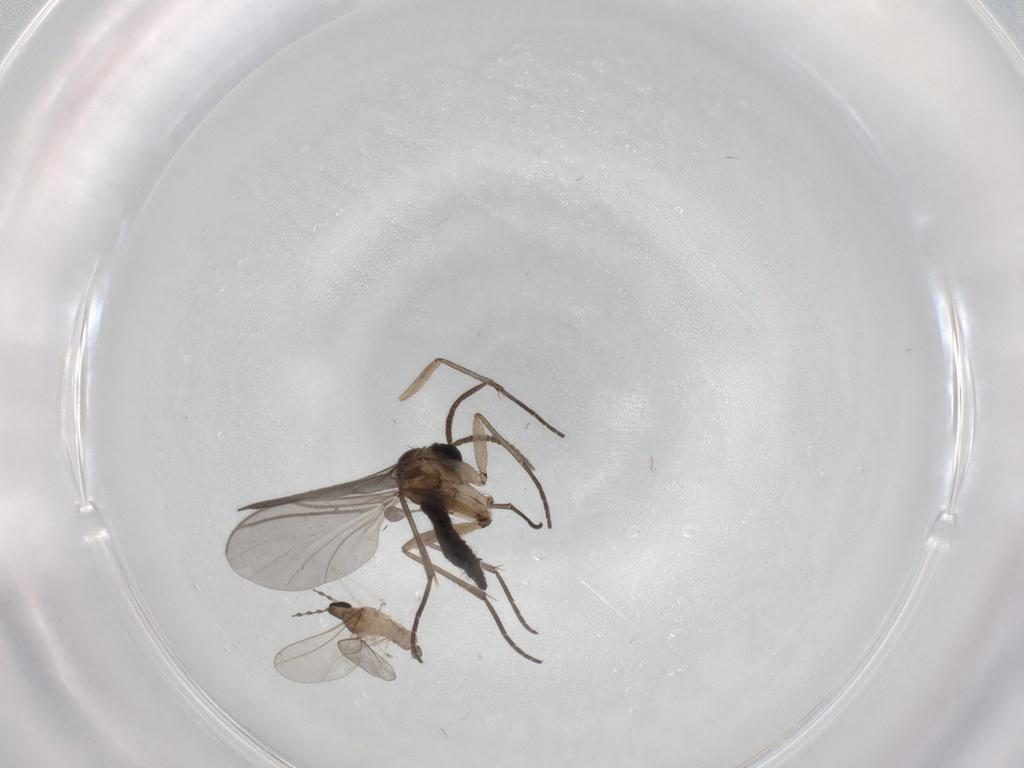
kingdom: Animalia
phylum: Arthropoda
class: Insecta
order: Diptera
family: Cecidomyiidae
